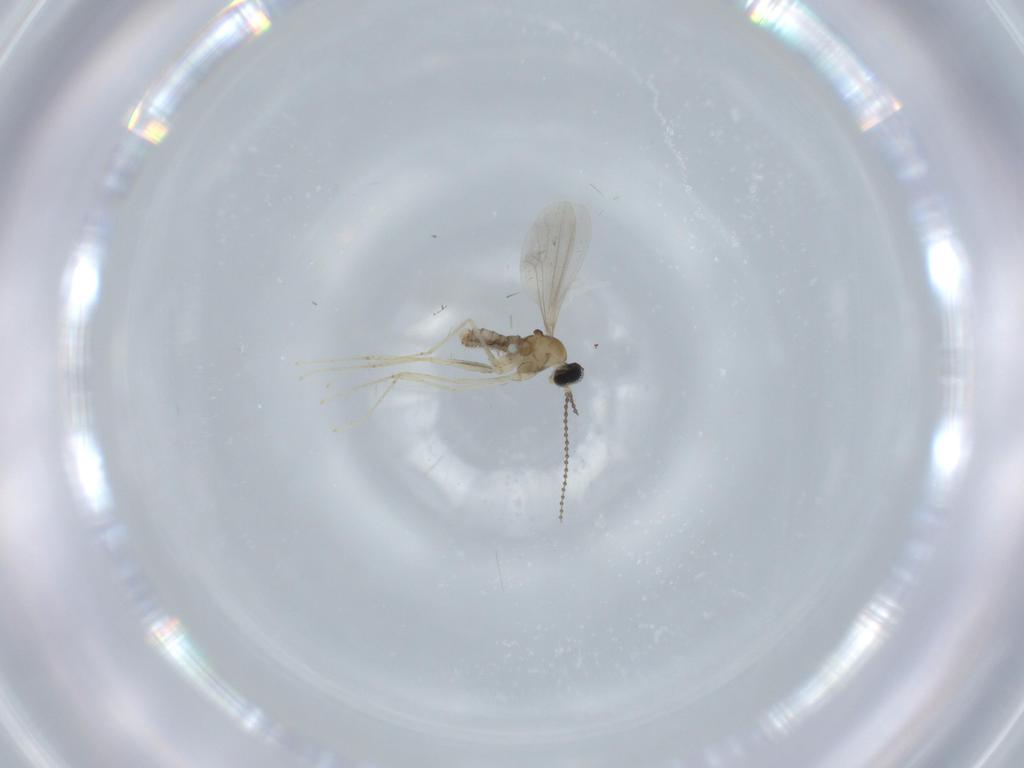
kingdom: Animalia
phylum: Arthropoda
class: Insecta
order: Diptera
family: Cecidomyiidae
